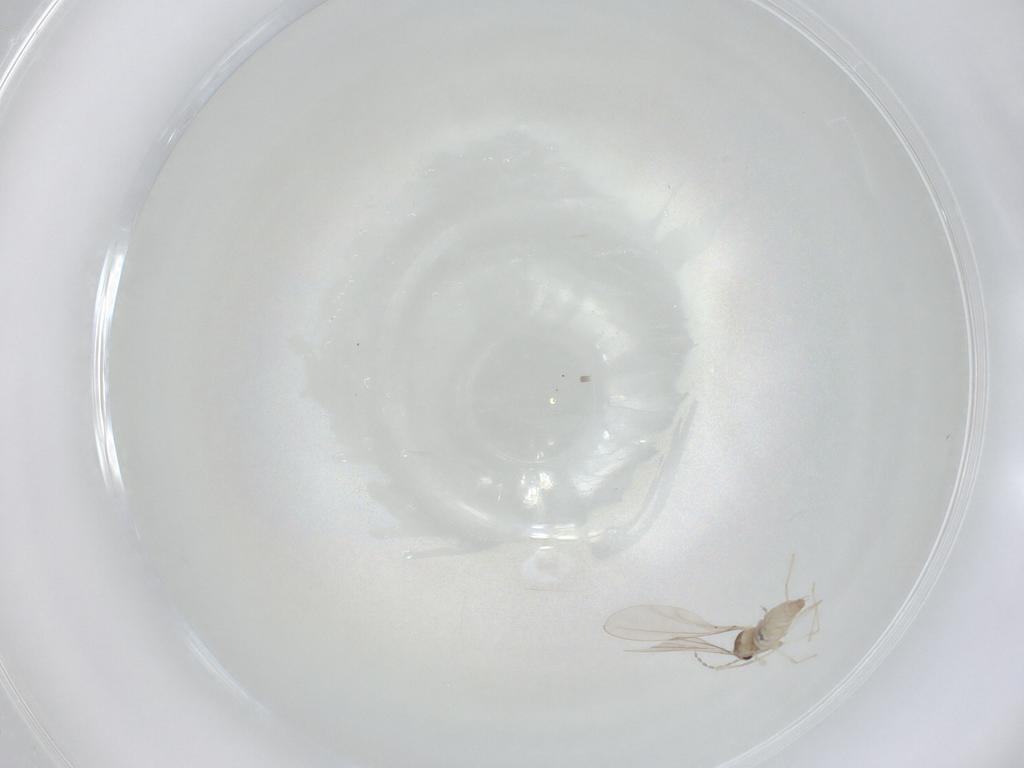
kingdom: Animalia
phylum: Arthropoda
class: Insecta
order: Diptera
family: Cecidomyiidae
